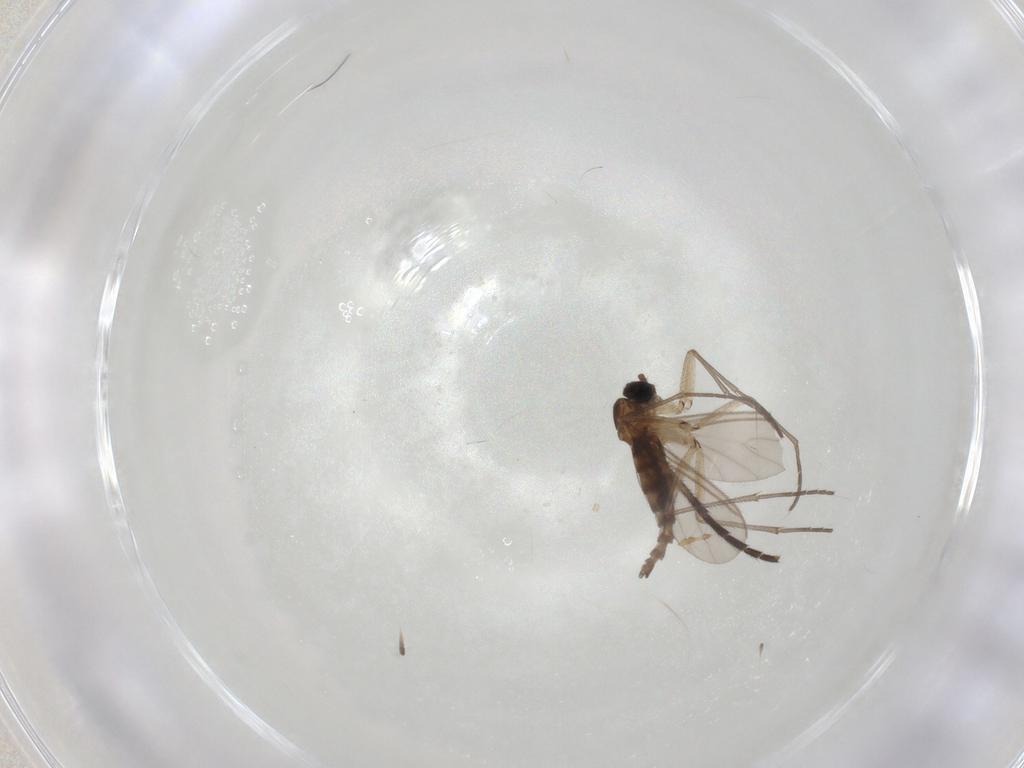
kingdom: Animalia
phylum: Arthropoda
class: Insecta
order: Diptera
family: Sciaridae
